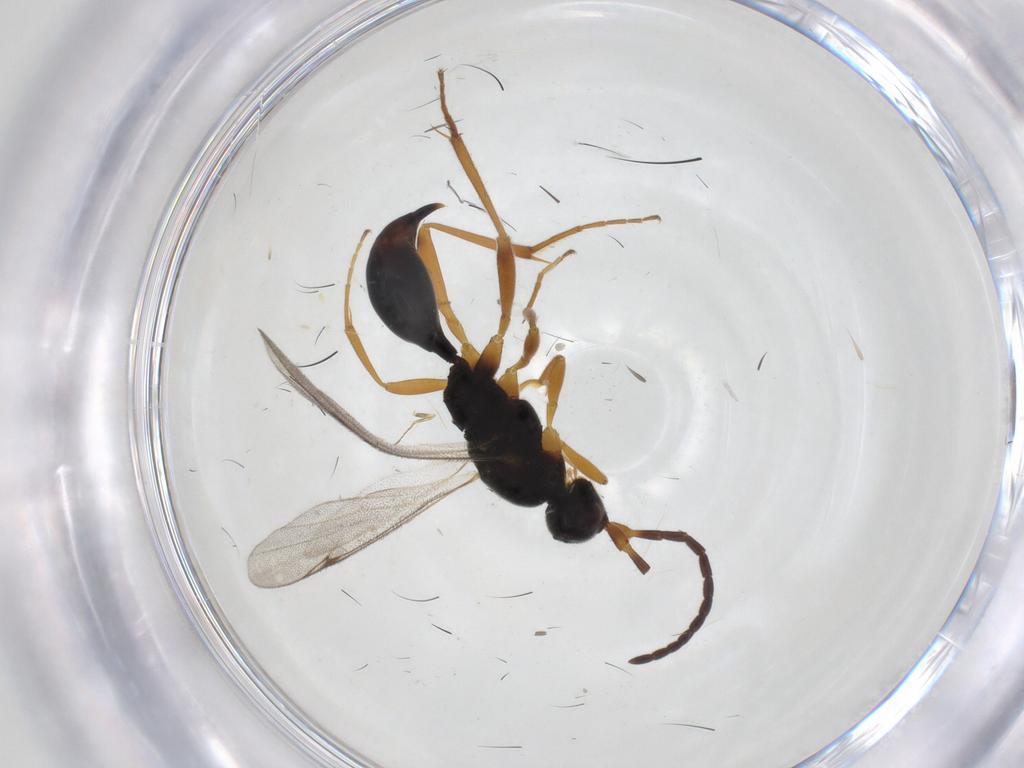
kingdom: Animalia
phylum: Arthropoda
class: Insecta
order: Hymenoptera
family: Proctotrupidae
